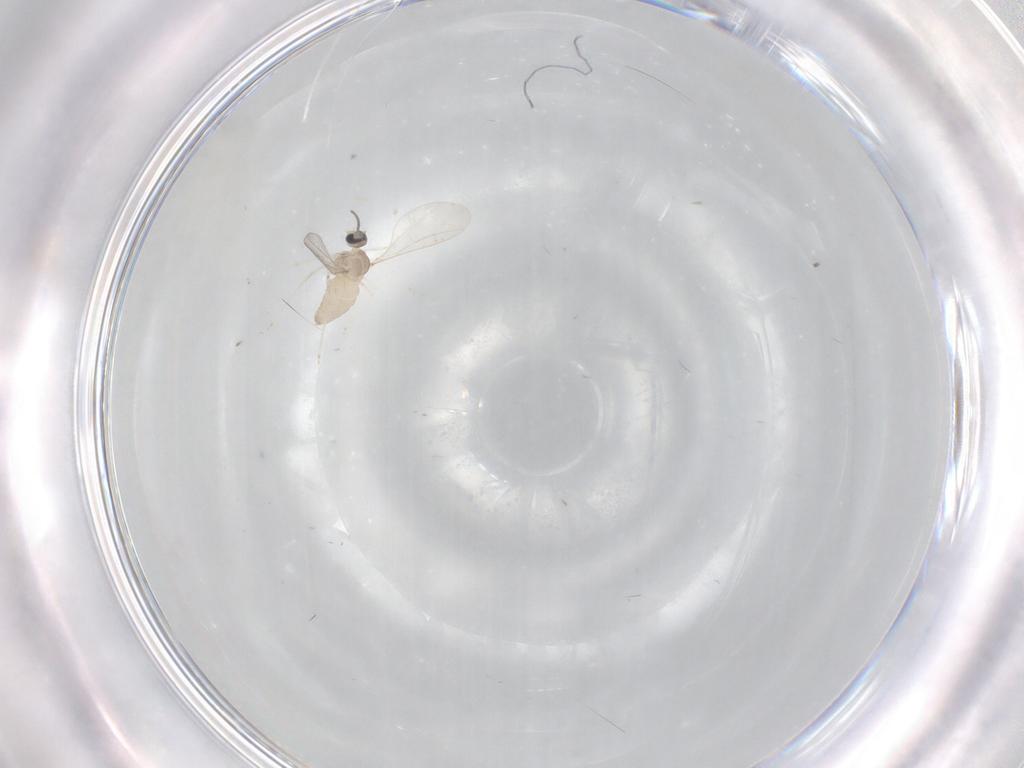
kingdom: Animalia
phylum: Arthropoda
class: Insecta
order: Diptera
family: Cecidomyiidae
